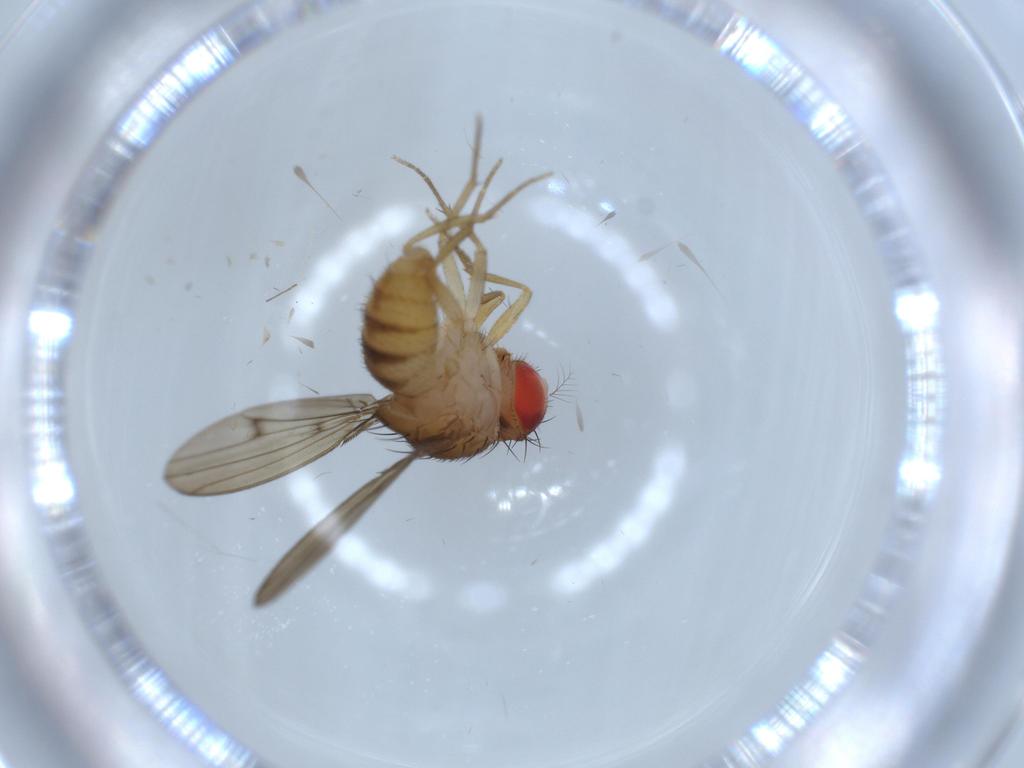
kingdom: Animalia
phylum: Arthropoda
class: Insecta
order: Diptera
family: Drosophilidae
